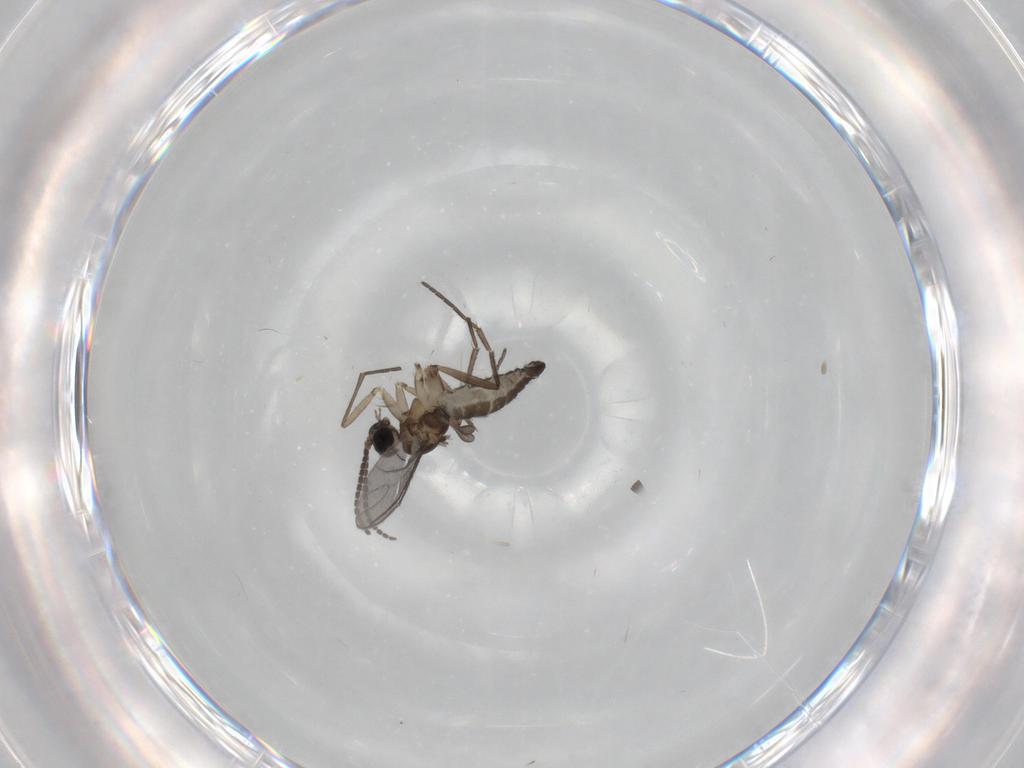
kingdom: Animalia
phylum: Arthropoda
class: Insecta
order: Diptera
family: Sciaridae
